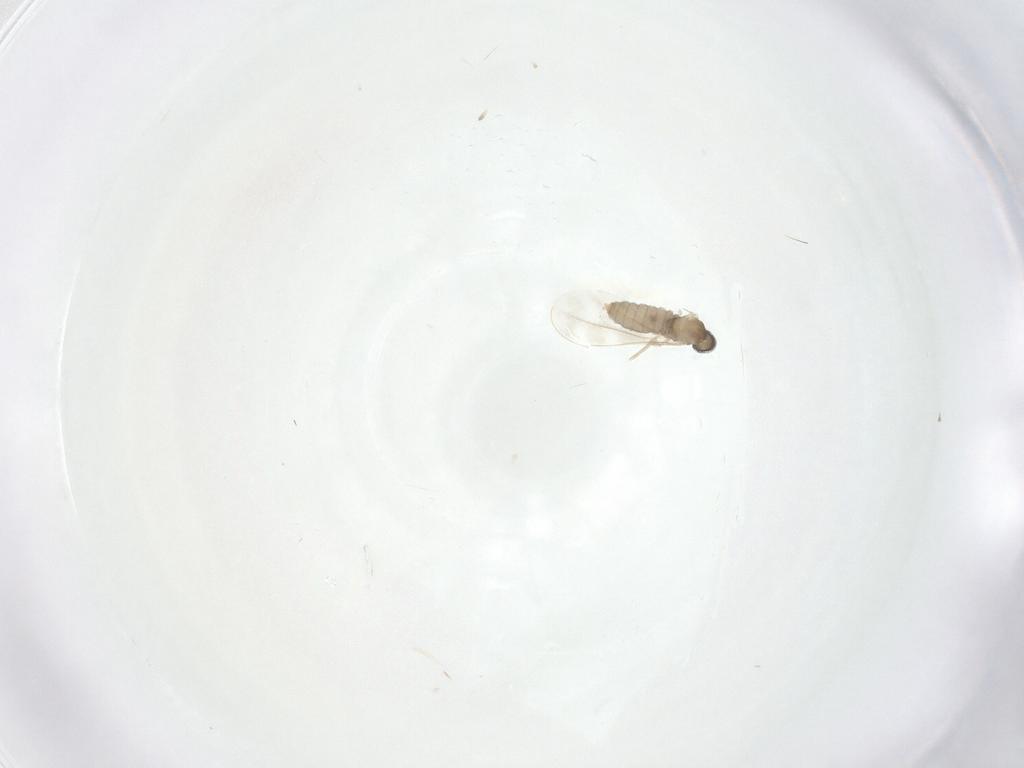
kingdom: Animalia
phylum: Arthropoda
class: Insecta
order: Diptera
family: Cecidomyiidae
